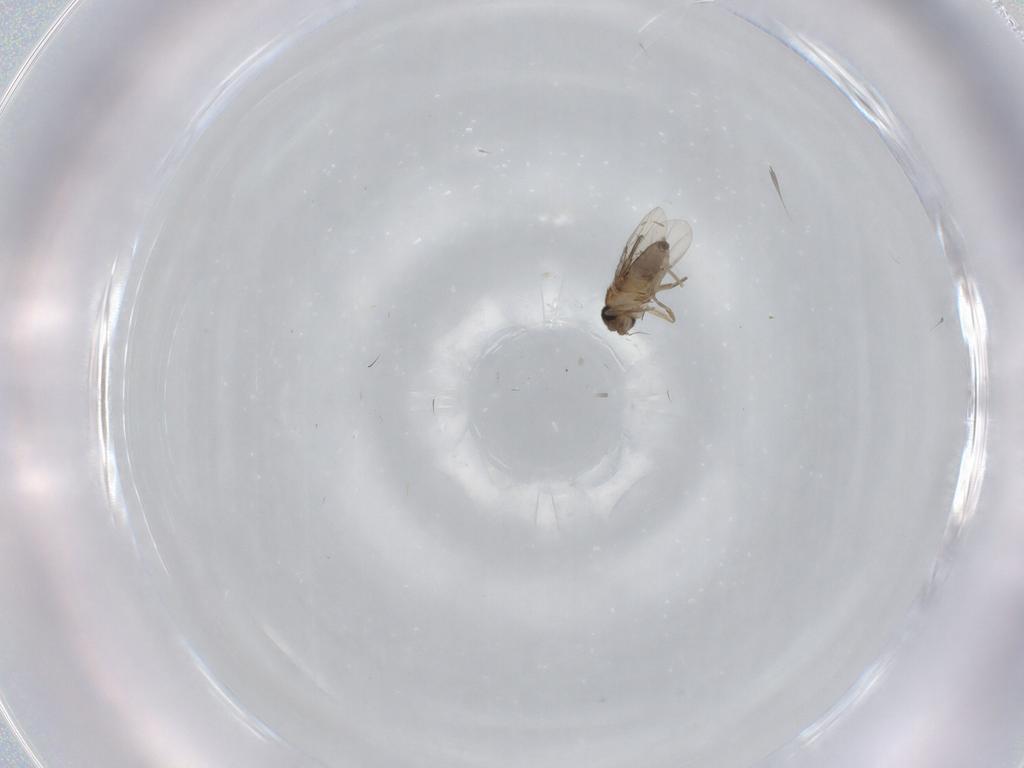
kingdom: Animalia
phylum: Arthropoda
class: Insecta
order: Diptera
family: Phoridae
